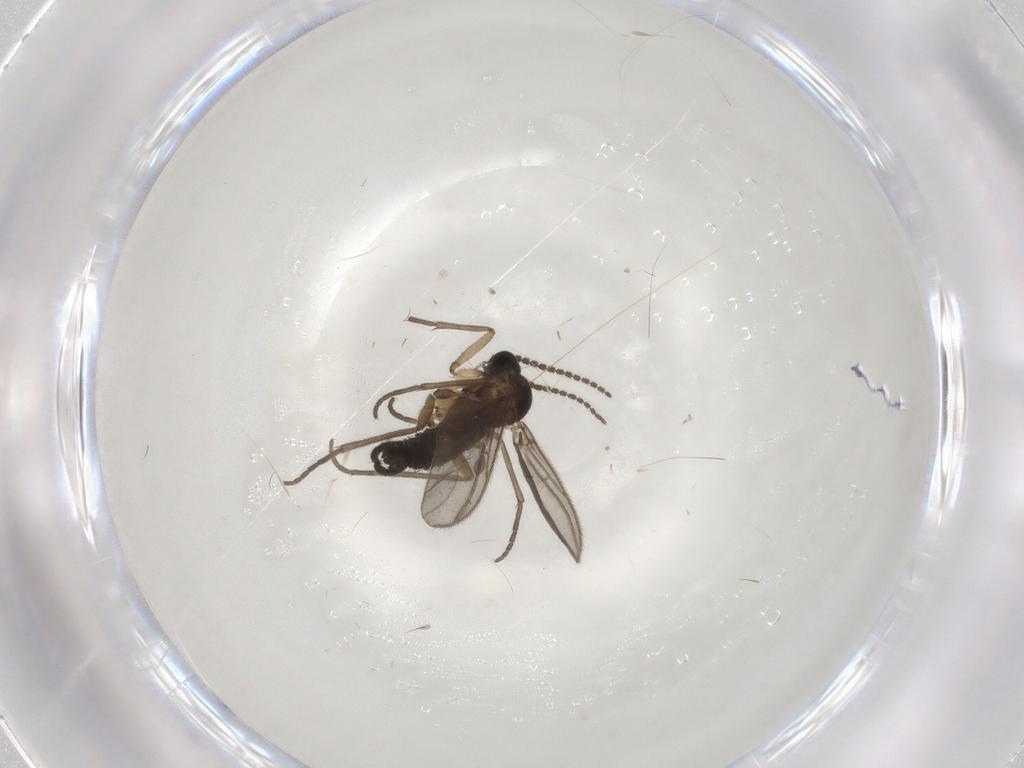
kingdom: Animalia
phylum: Arthropoda
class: Insecta
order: Diptera
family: Sciaridae
